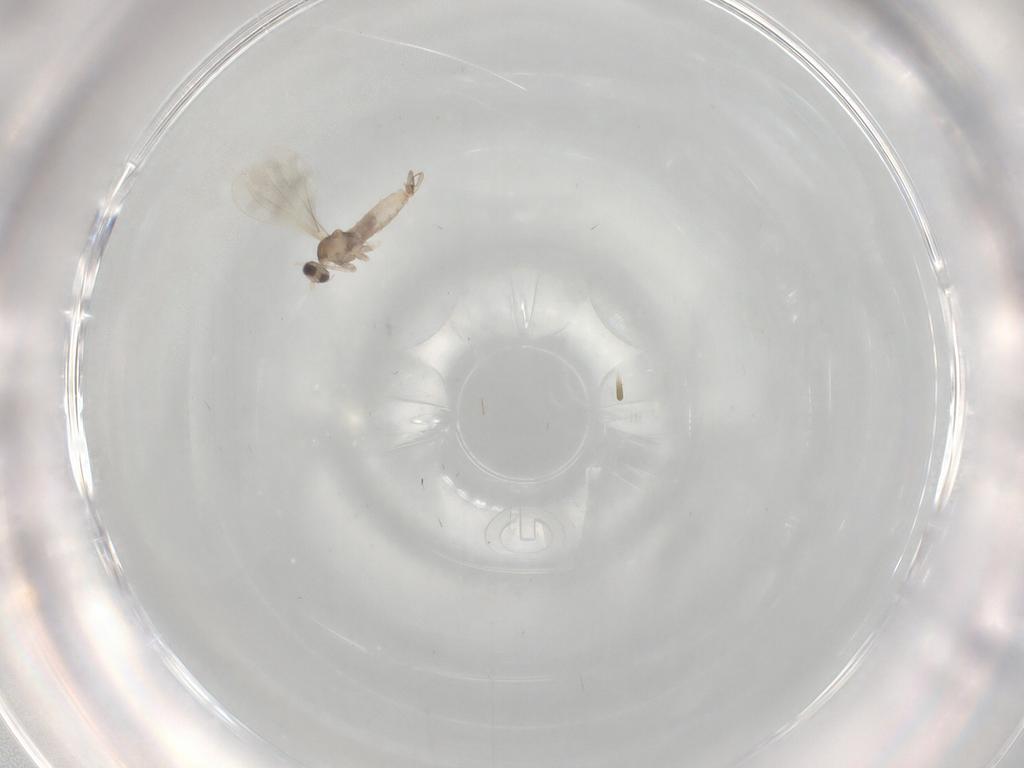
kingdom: Animalia
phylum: Arthropoda
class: Insecta
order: Diptera
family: Cecidomyiidae
